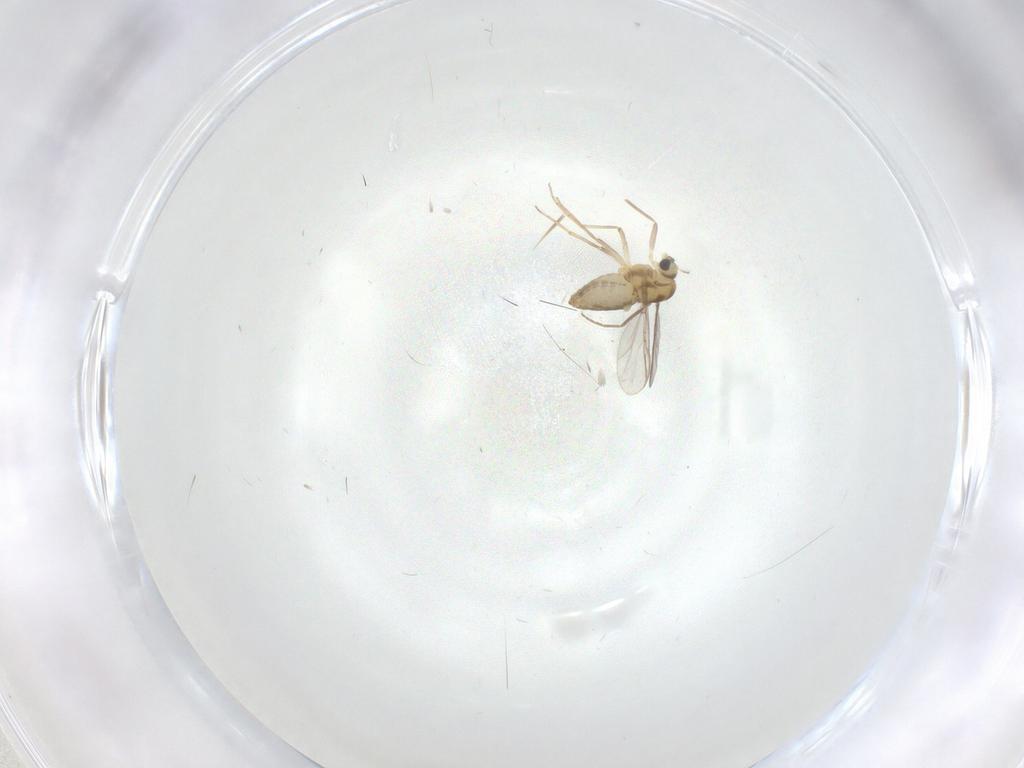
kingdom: Animalia
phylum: Arthropoda
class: Insecta
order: Diptera
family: Chironomidae
